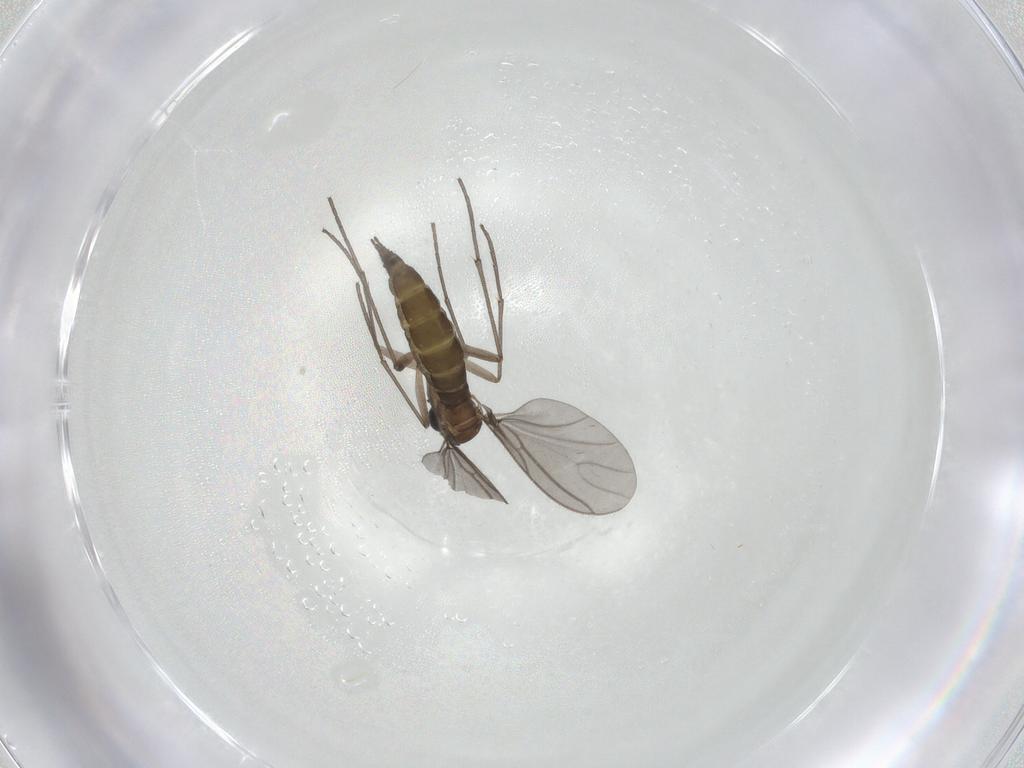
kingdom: Animalia
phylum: Arthropoda
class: Insecta
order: Diptera
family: Sciaridae
